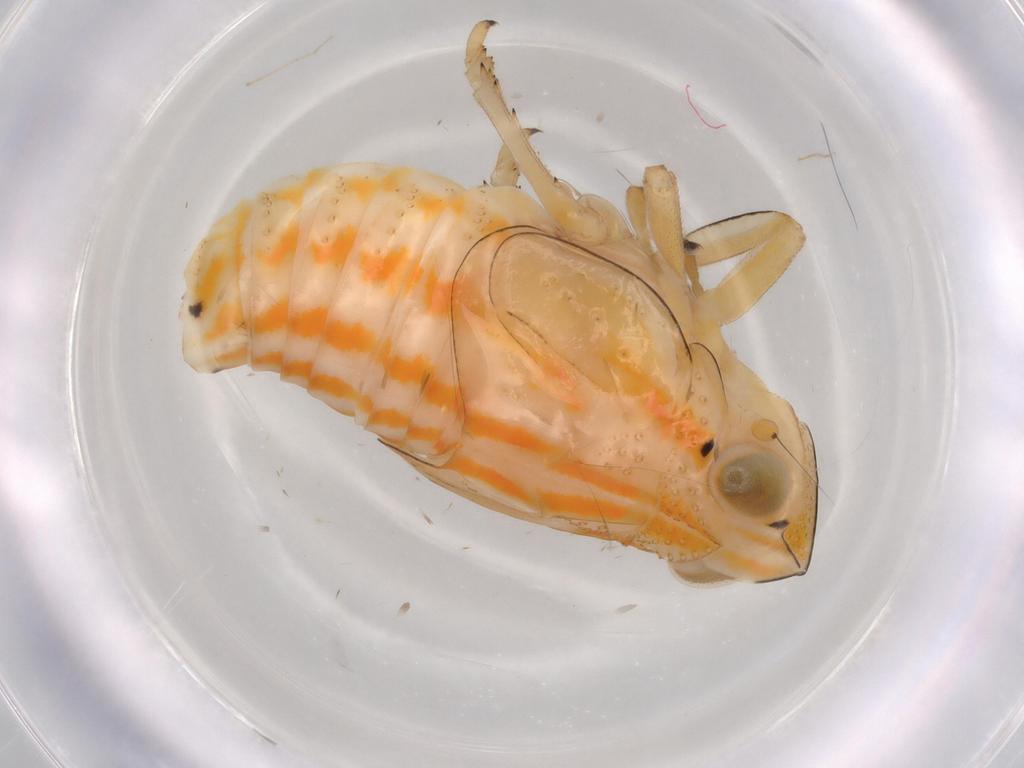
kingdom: Animalia
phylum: Arthropoda
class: Insecta
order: Hemiptera
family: Issidae
